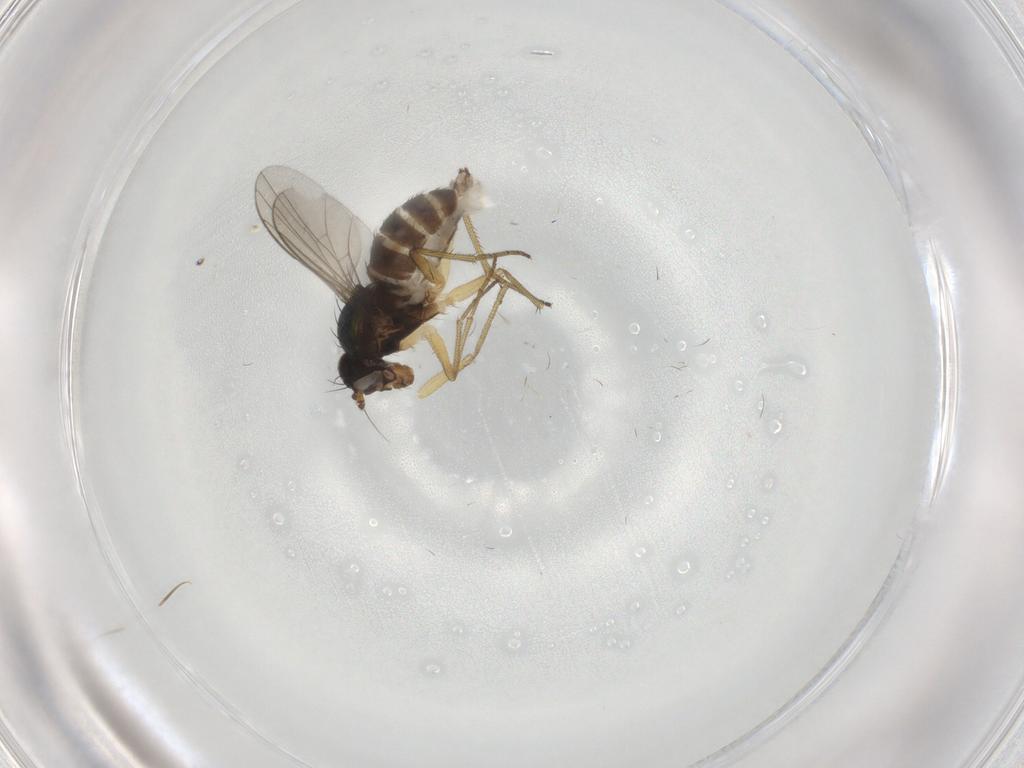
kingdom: Animalia
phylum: Arthropoda
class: Insecta
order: Diptera
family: Dolichopodidae
